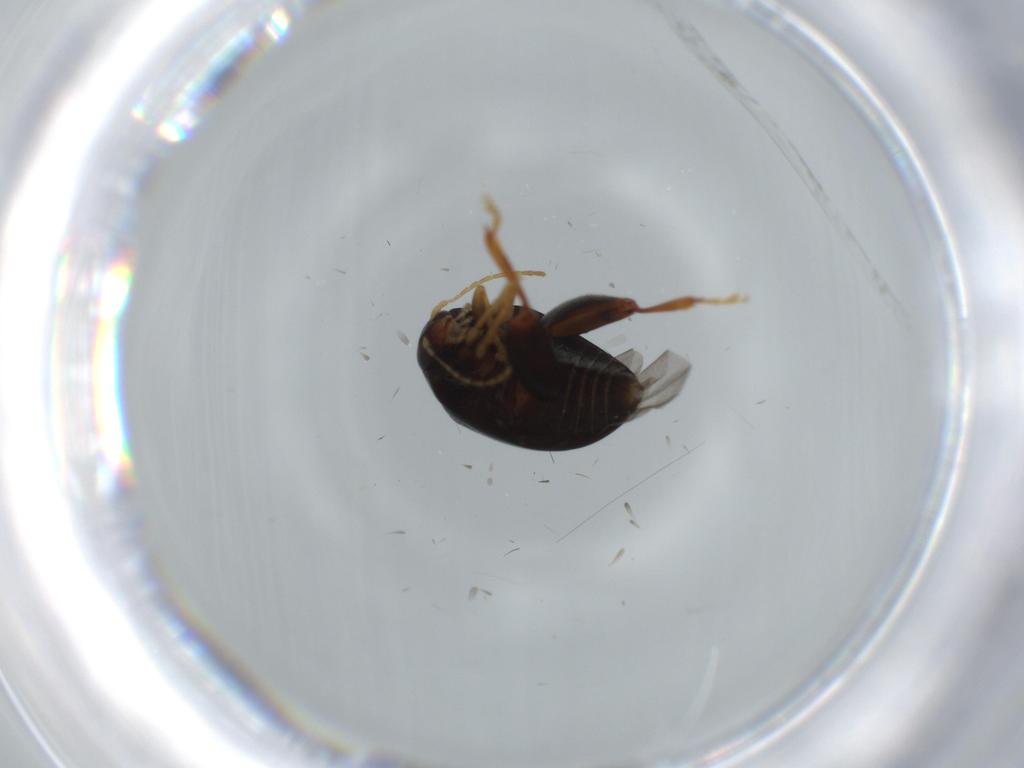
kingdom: Animalia
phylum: Arthropoda
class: Insecta
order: Coleoptera
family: Chrysomelidae
